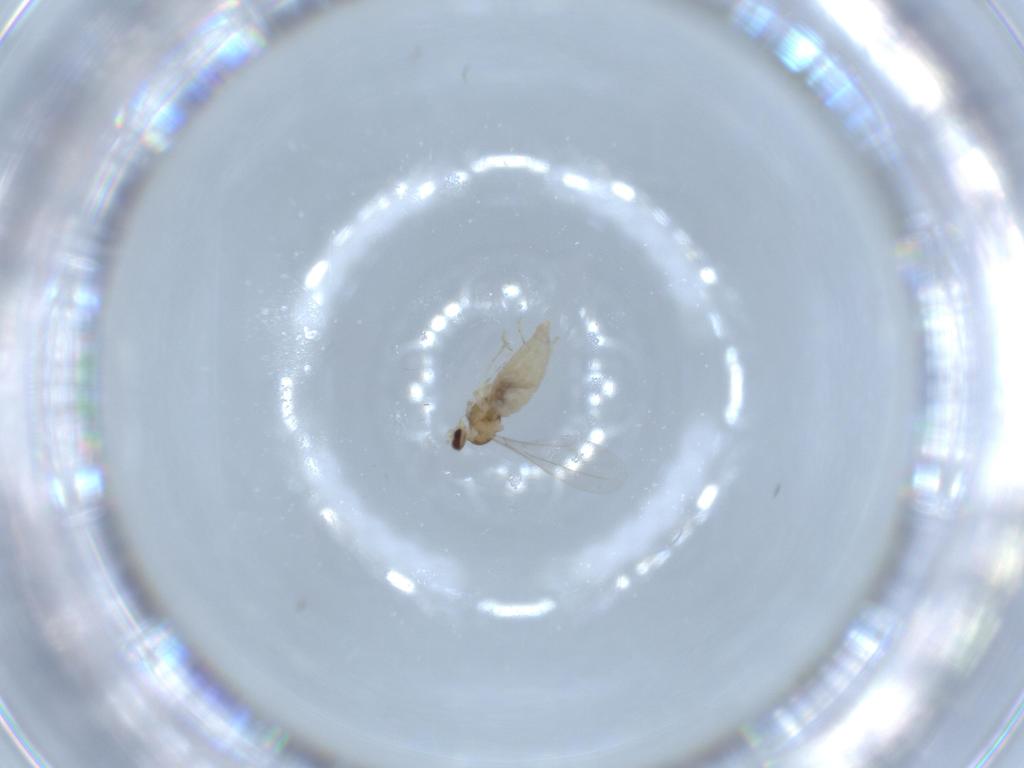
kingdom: Animalia
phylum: Arthropoda
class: Insecta
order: Diptera
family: Cecidomyiidae
